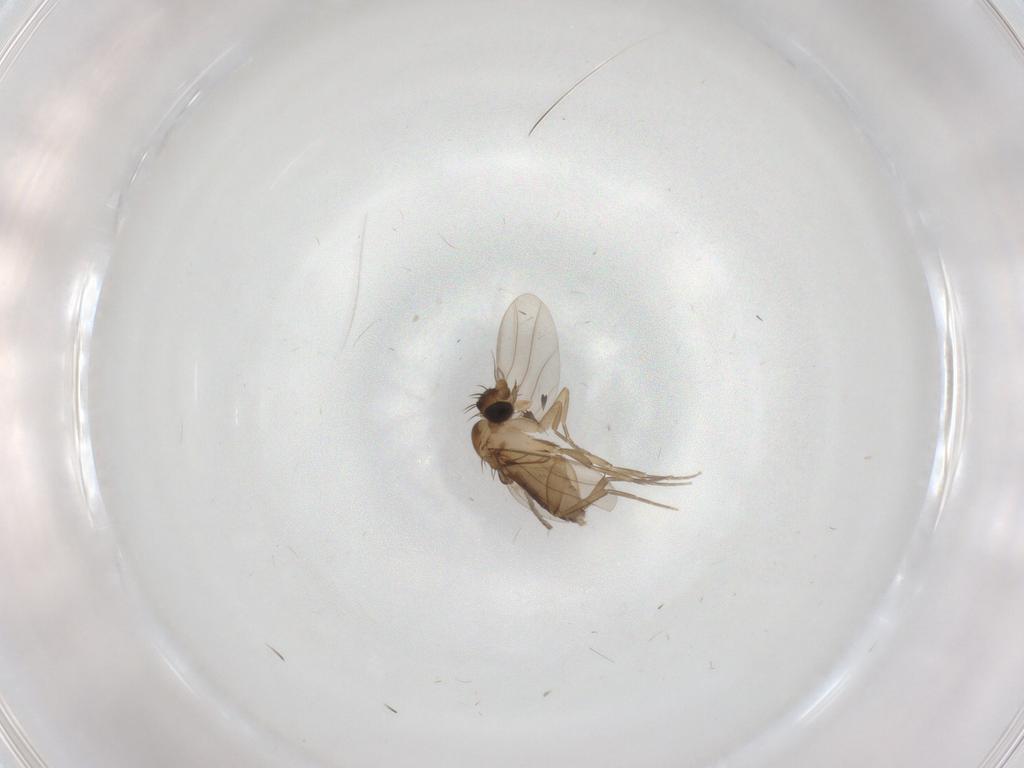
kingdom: Animalia
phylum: Arthropoda
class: Insecta
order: Diptera
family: Psychodidae
